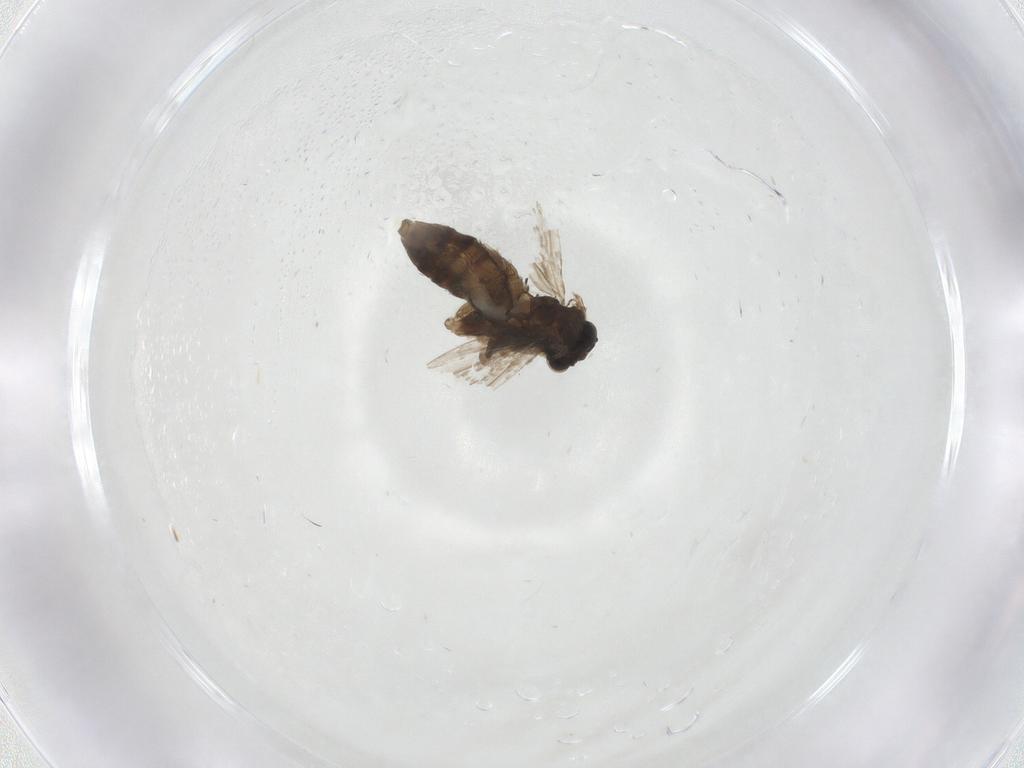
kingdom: Animalia
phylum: Arthropoda
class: Insecta
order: Lepidoptera
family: Micropterigidae
